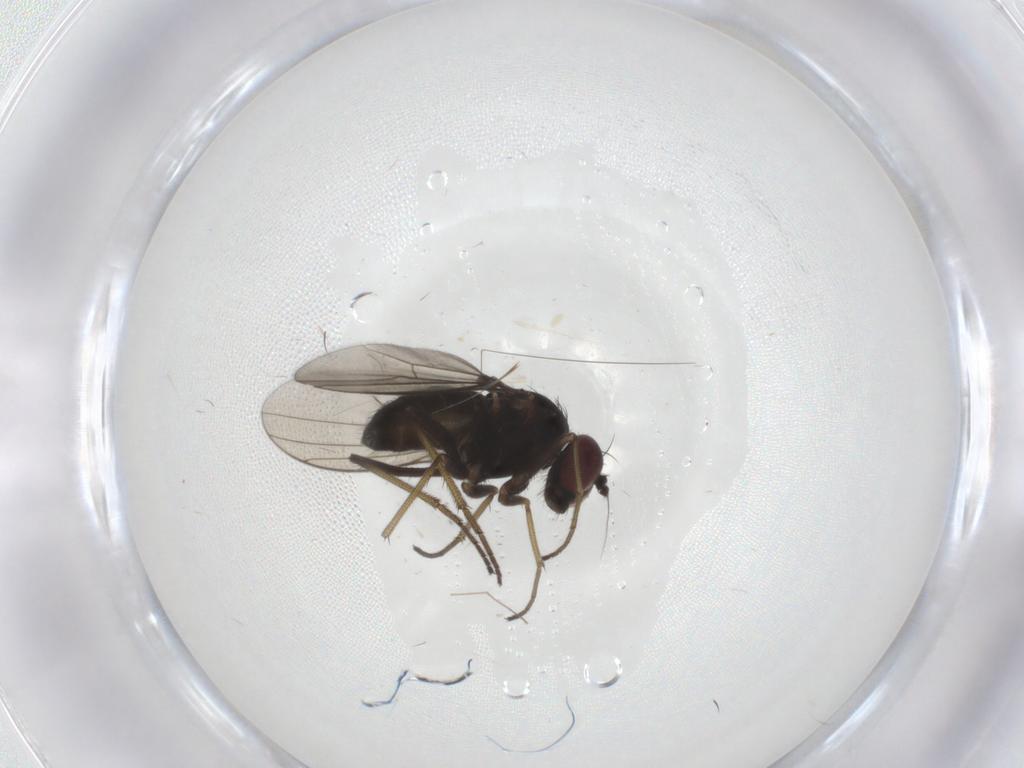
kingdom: Animalia
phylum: Arthropoda
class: Insecta
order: Diptera
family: Dolichopodidae
